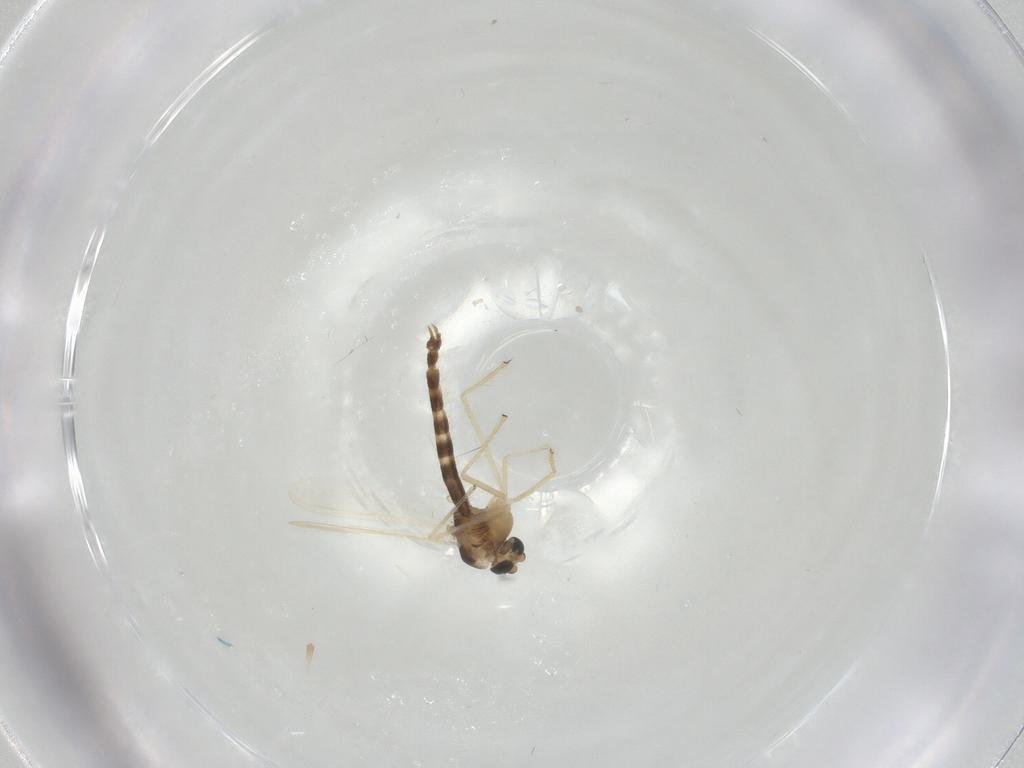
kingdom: Animalia
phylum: Arthropoda
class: Insecta
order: Diptera
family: Chironomidae
